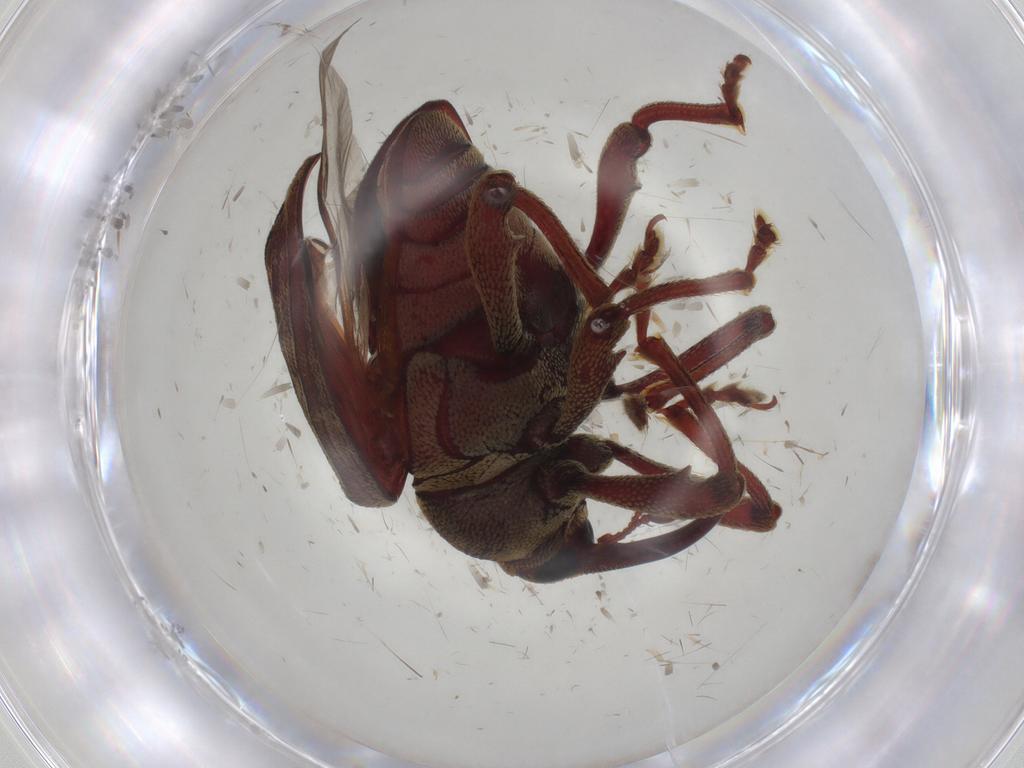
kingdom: Animalia
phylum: Arthropoda
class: Insecta
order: Coleoptera
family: Curculionidae
